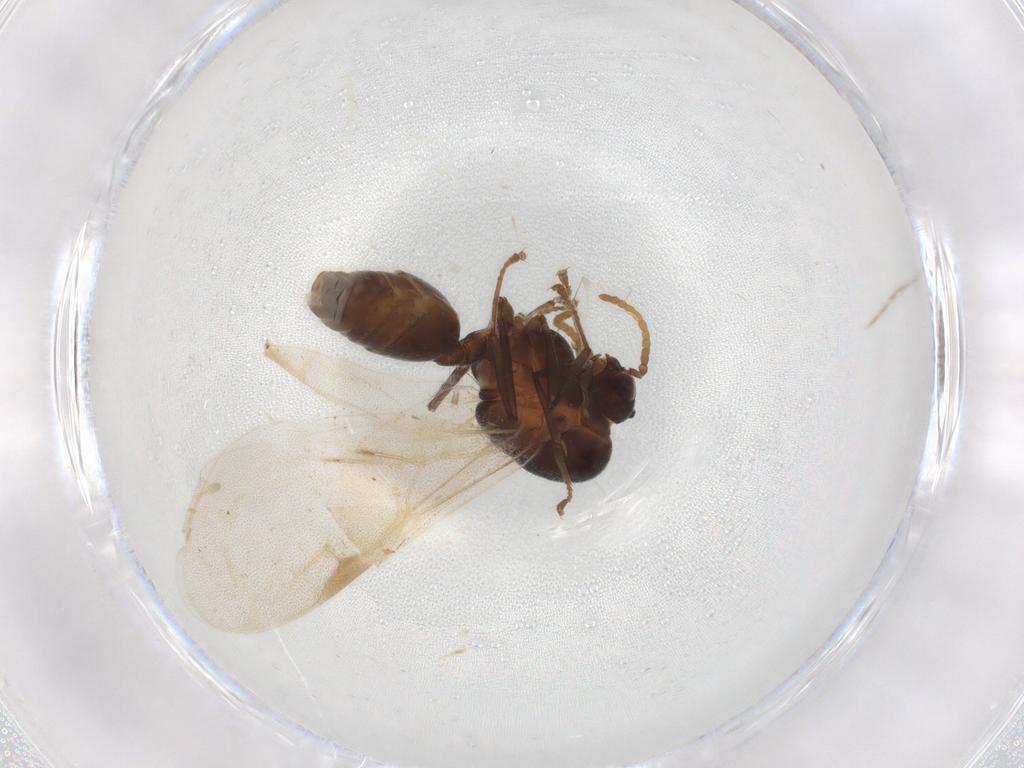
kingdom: Animalia
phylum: Arthropoda
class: Insecta
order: Hymenoptera
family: Formicidae
